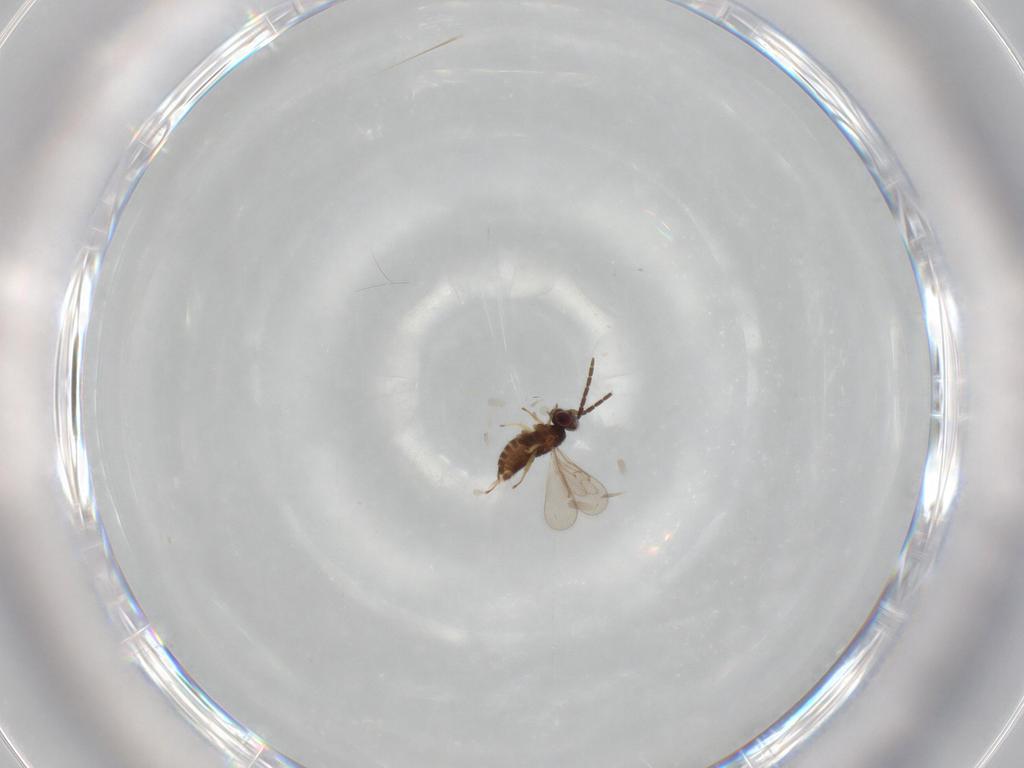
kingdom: Animalia
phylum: Arthropoda
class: Insecta
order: Hymenoptera
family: Aphelinidae
